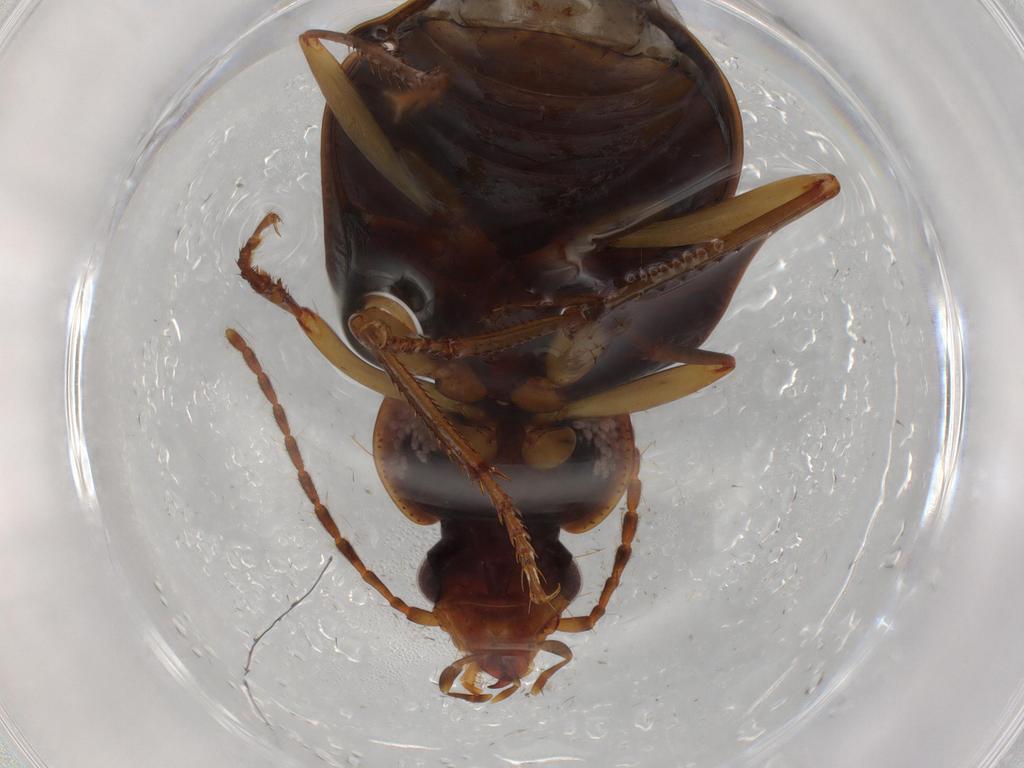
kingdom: Animalia
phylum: Arthropoda
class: Insecta
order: Coleoptera
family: Carabidae
